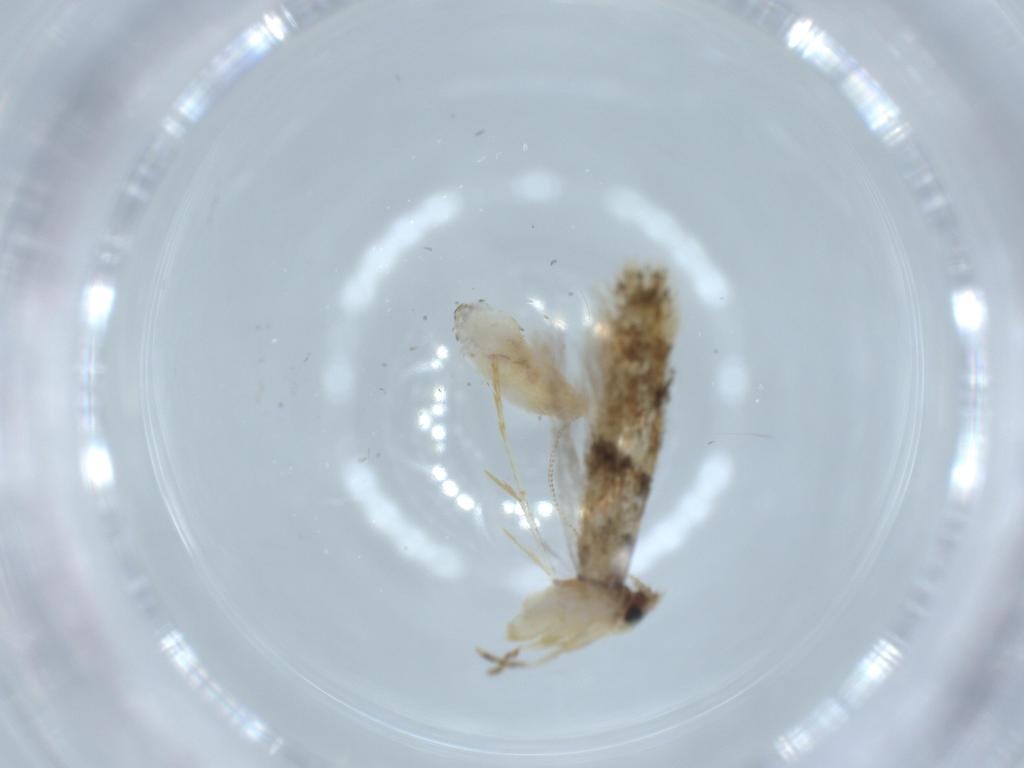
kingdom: Animalia
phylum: Arthropoda
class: Insecta
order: Lepidoptera
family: Tineidae
